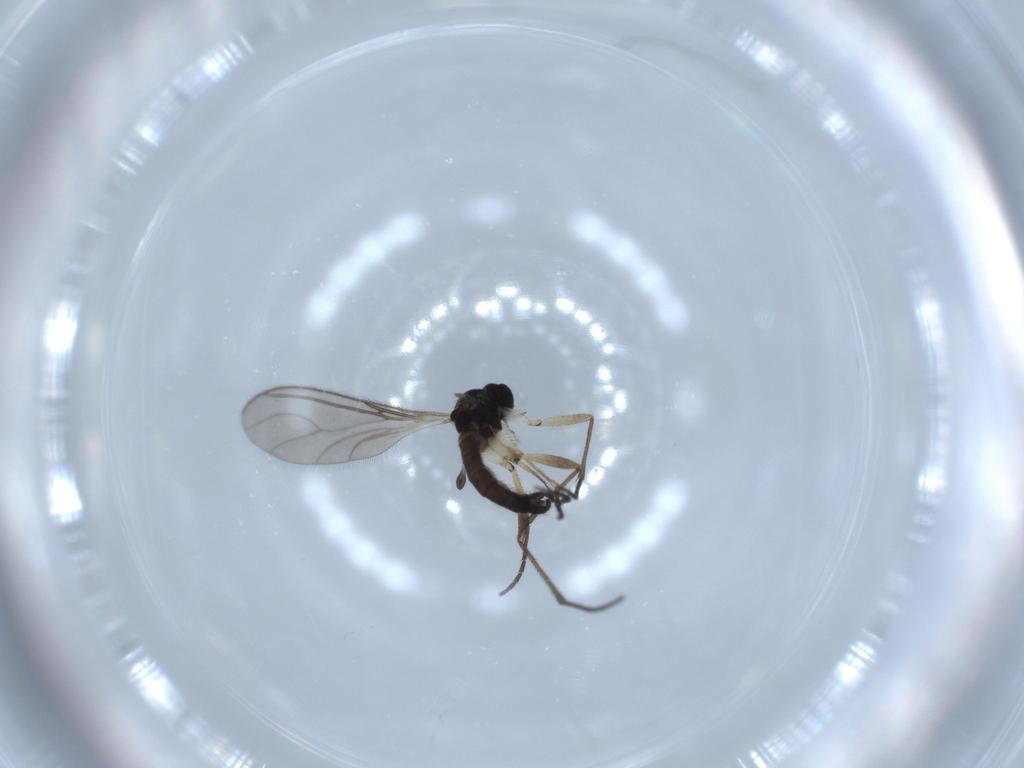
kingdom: Animalia
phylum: Arthropoda
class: Insecta
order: Diptera
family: Sciaridae
